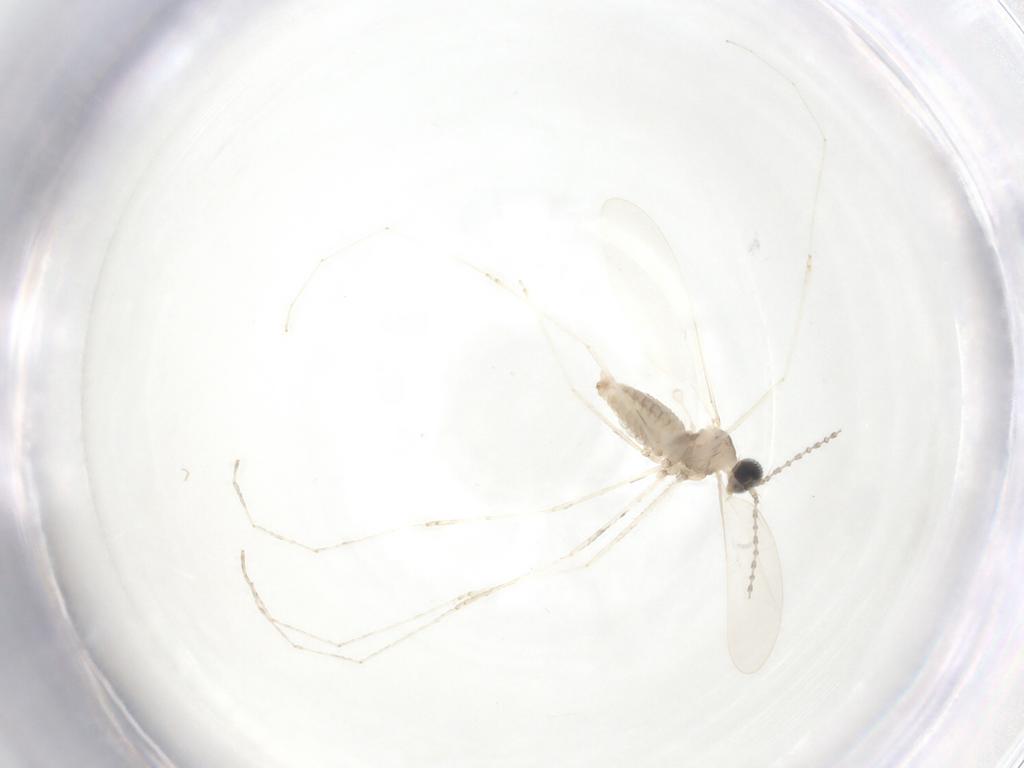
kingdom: Animalia
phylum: Arthropoda
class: Insecta
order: Diptera
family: Cecidomyiidae
